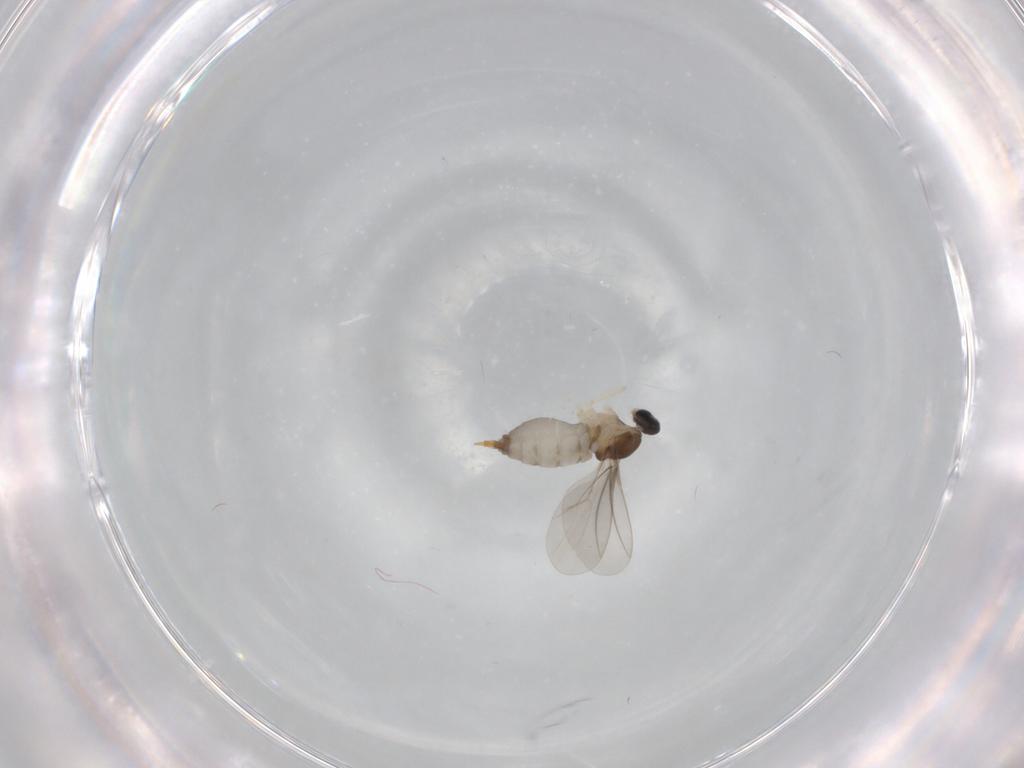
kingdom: Animalia
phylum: Arthropoda
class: Insecta
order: Diptera
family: Cecidomyiidae
